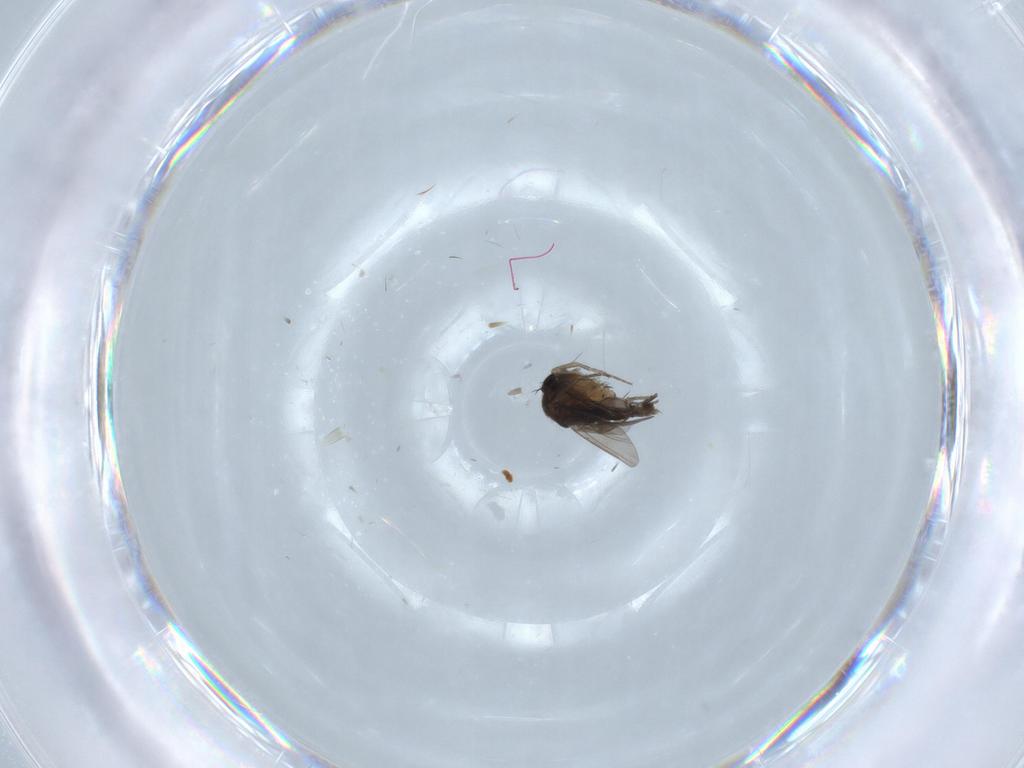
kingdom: Animalia
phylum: Arthropoda
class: Insecta
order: Diptera
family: Phoridae
